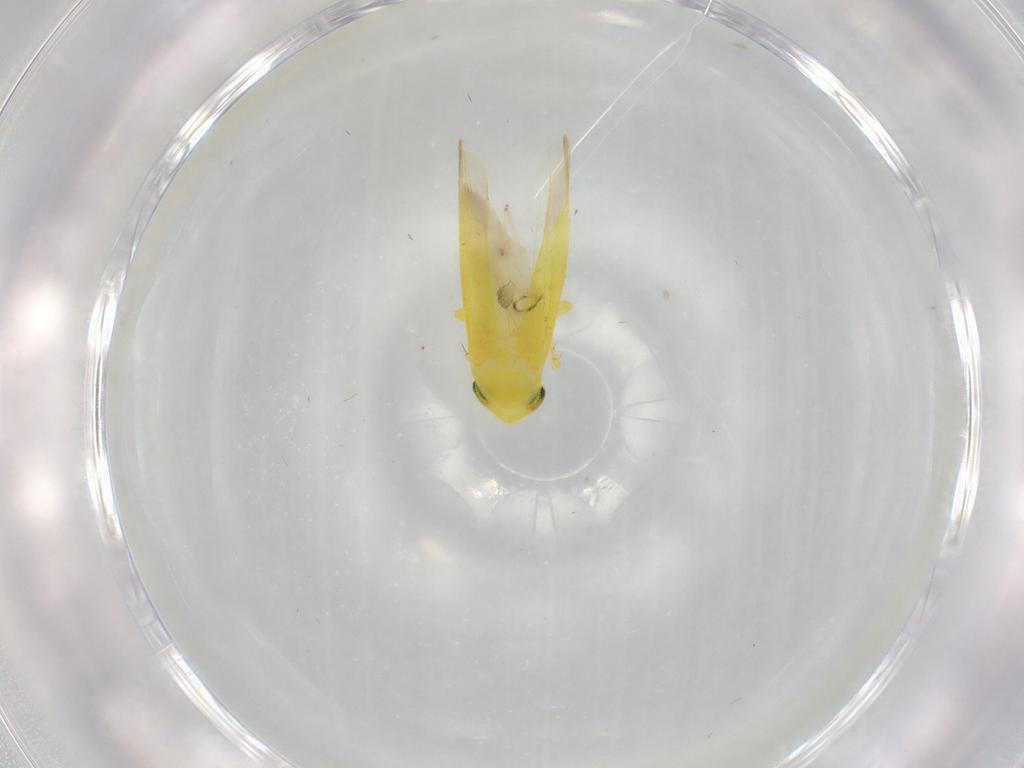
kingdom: Animalia
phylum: Arthropoda
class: Insecta
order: Hemiptera
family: Cicadellidae
